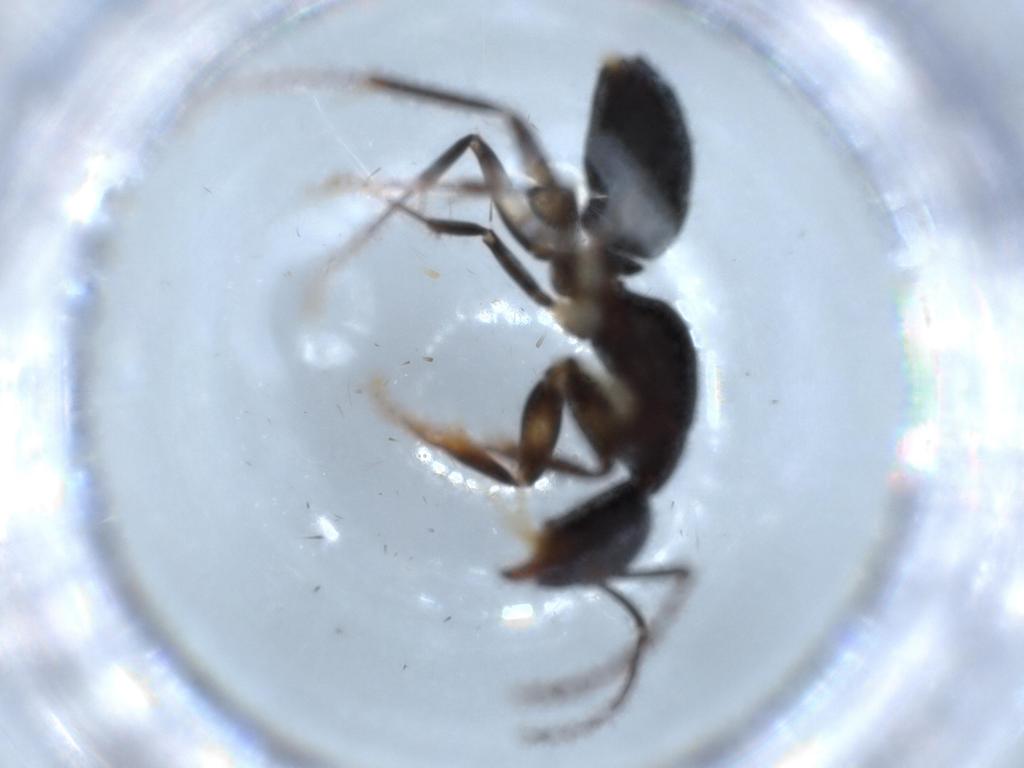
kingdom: Animalia
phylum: Arthropoda
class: Insecta
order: Hymenoptera
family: Formicidae
